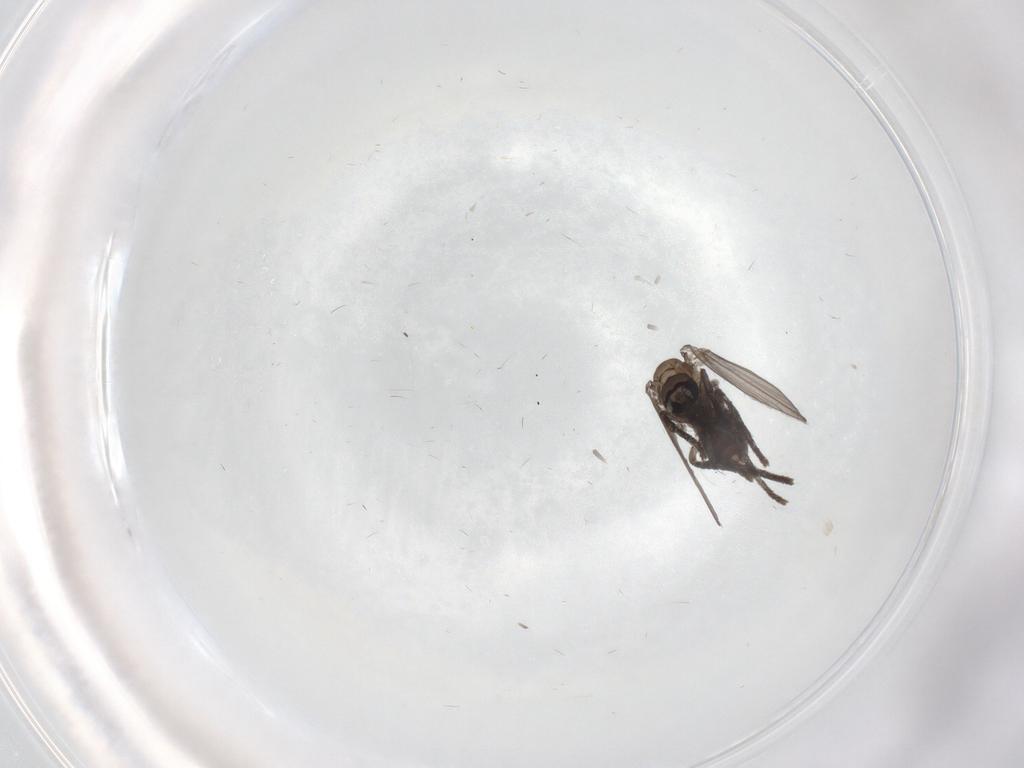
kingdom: Animalia
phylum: Arthropoda
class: Insecta
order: Diptera
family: Psychodidae
